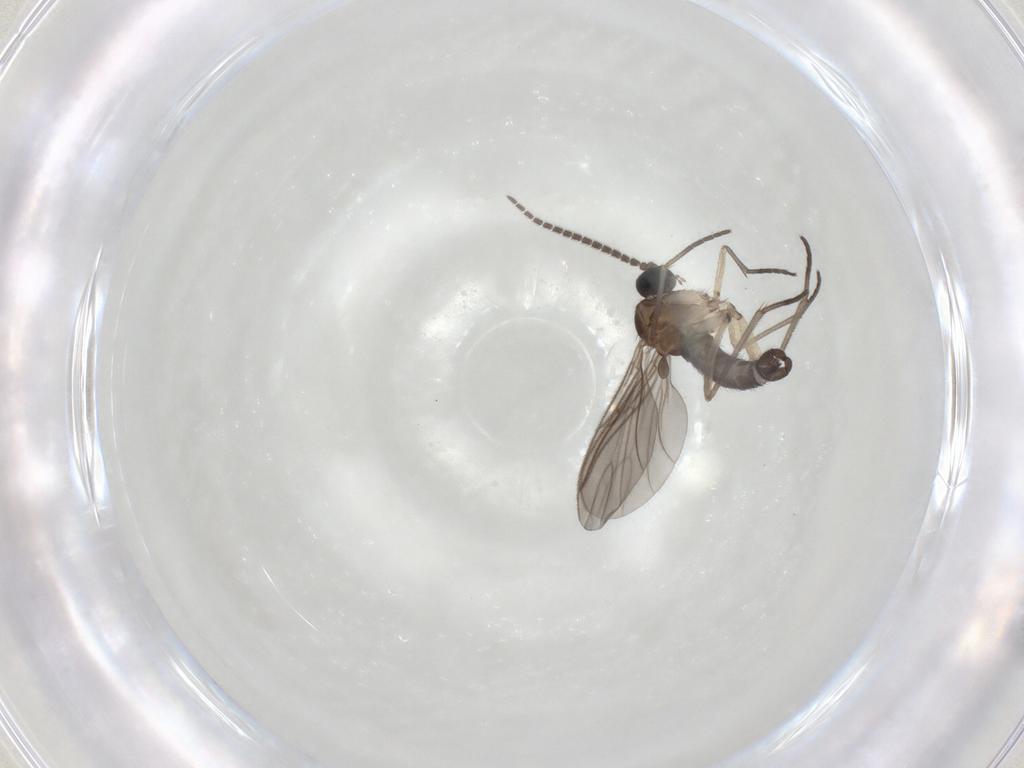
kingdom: Animalia
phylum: Arthropoda
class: Insecta
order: Diptera
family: Sciaridae
